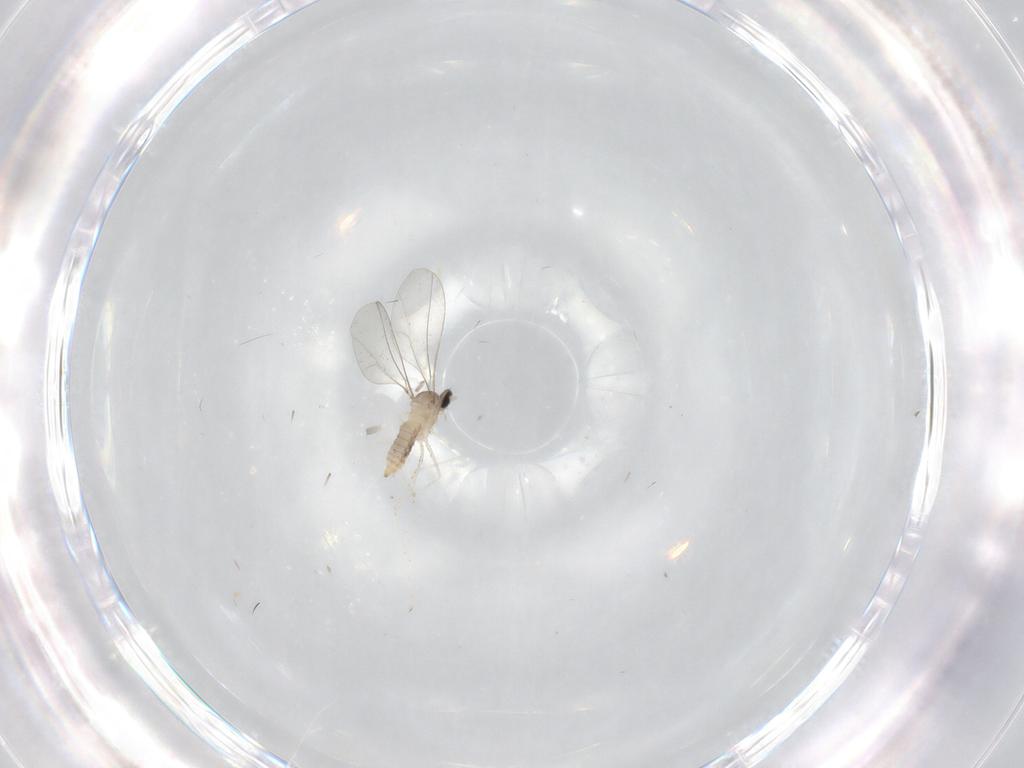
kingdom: Animalia
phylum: Arthropoda
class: Insecta
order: Diptera
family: Cecidomyiidae
